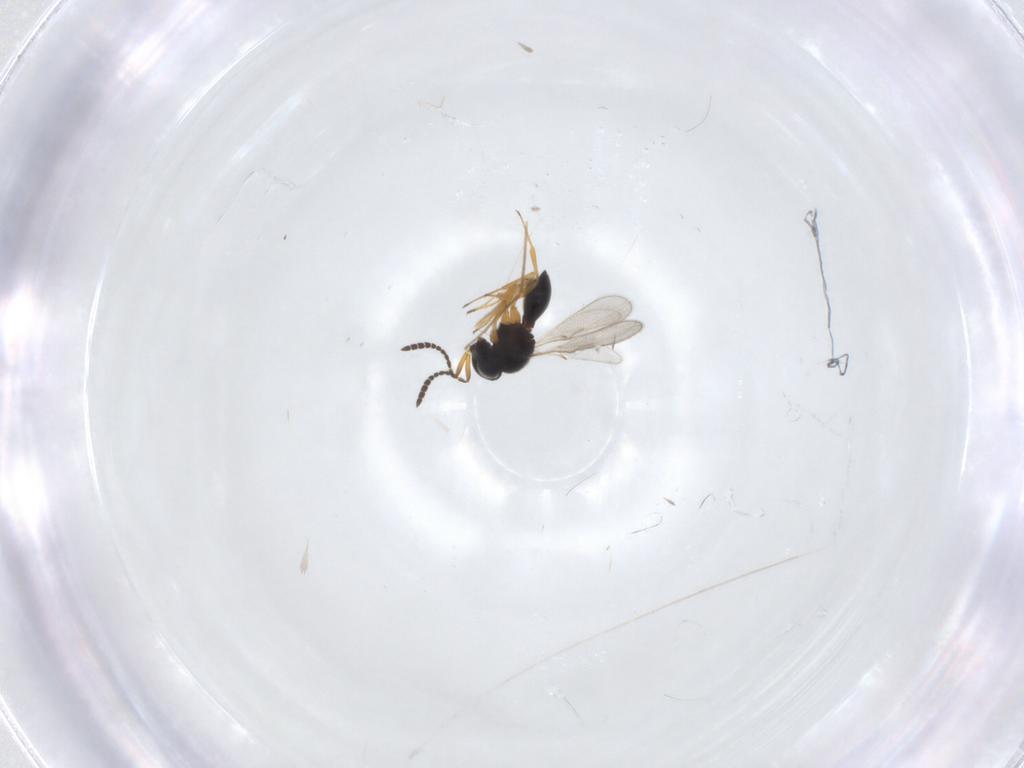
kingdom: Animalia
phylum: Arthropoda
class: Insecta
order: Hymenoptera
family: Scelionidae
